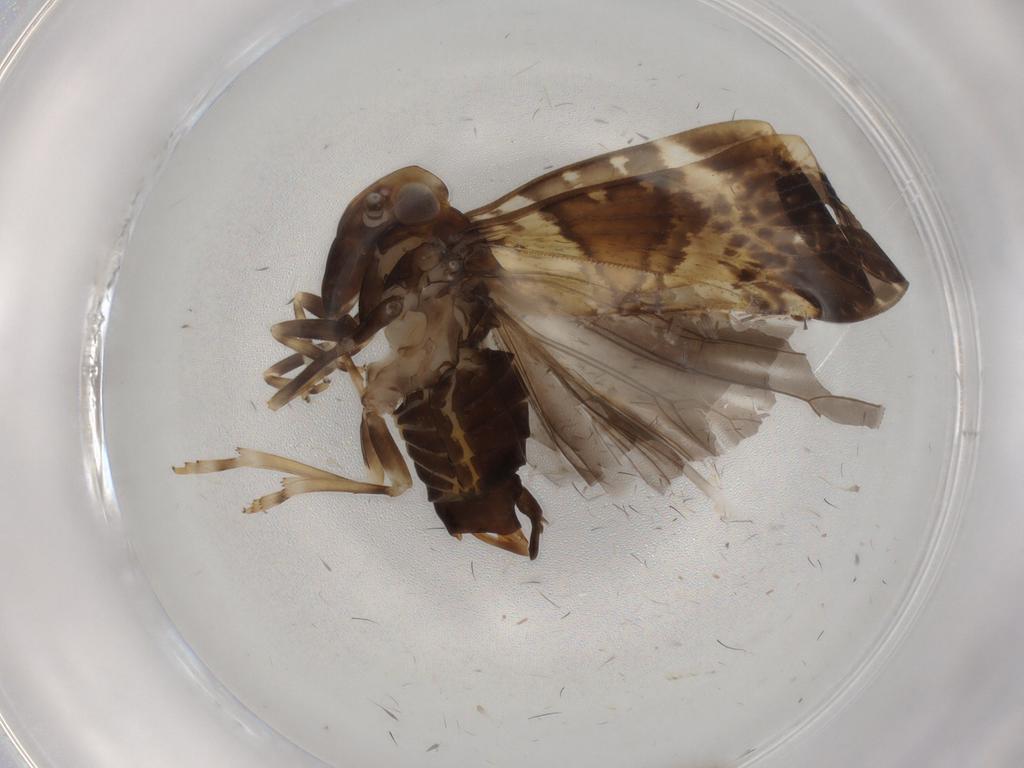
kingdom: Animalia
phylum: Arthropoda
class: Insecta
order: Hemiptera
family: Cixiidae
